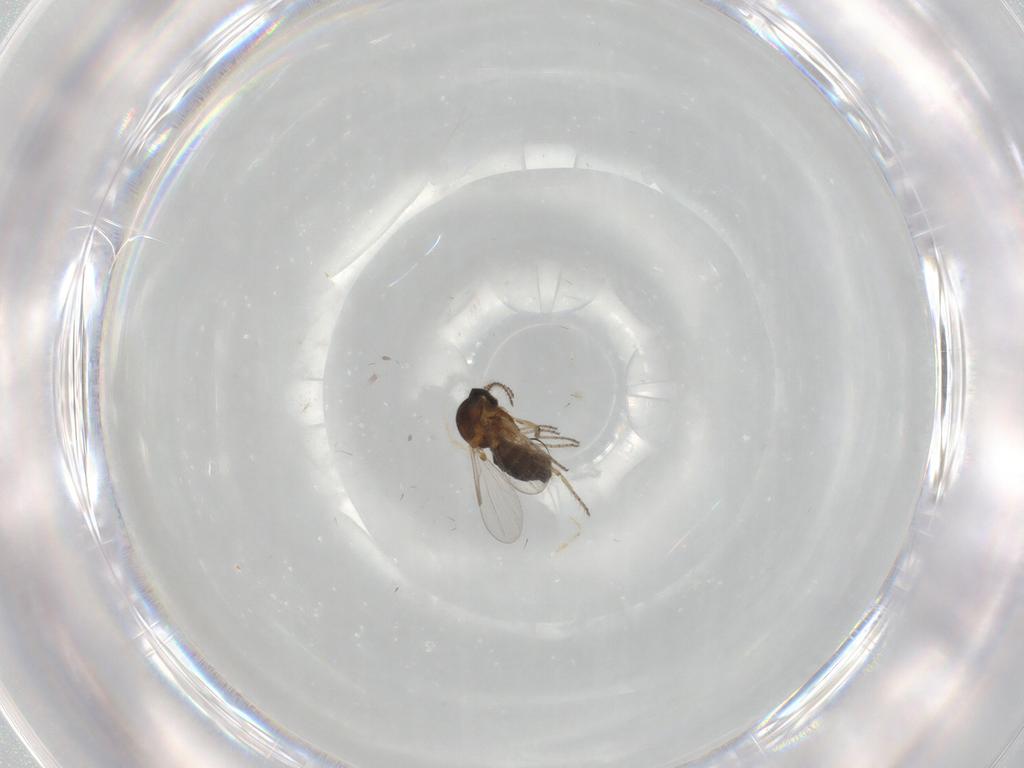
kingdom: Animalia
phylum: Arthropoda
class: Insecta
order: Diptera
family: Ceratopogonidae
